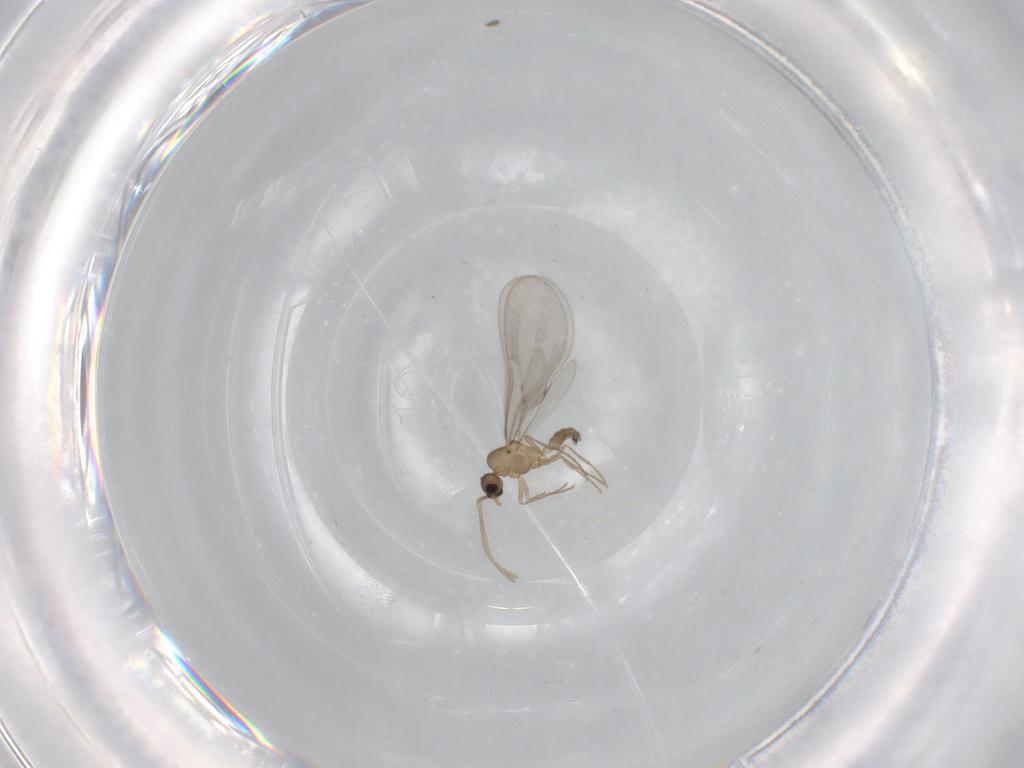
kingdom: Animalia
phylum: Arthropoda
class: Insecta
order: Hymenoptera
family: Formicidae
